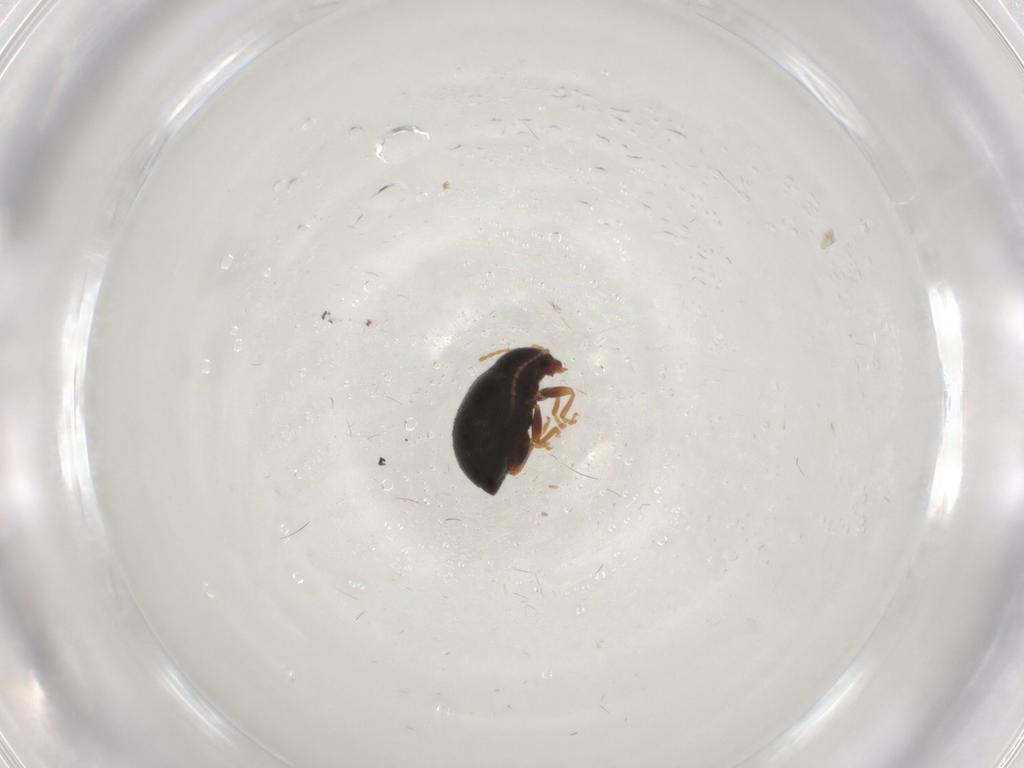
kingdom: Animalia
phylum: Arthropoda
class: Insecta
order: Coleoptera
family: Chrysomelidae
